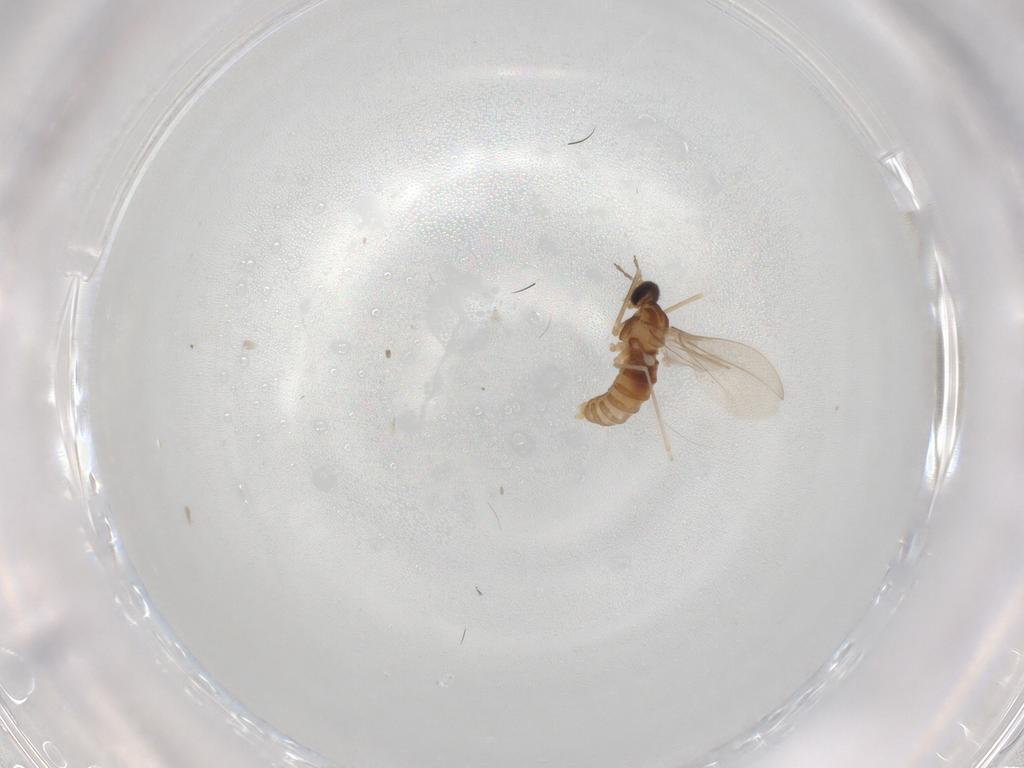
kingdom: Animalia
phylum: Arthropoda
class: Insecta
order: Diptera
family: Cecidomyiidae
